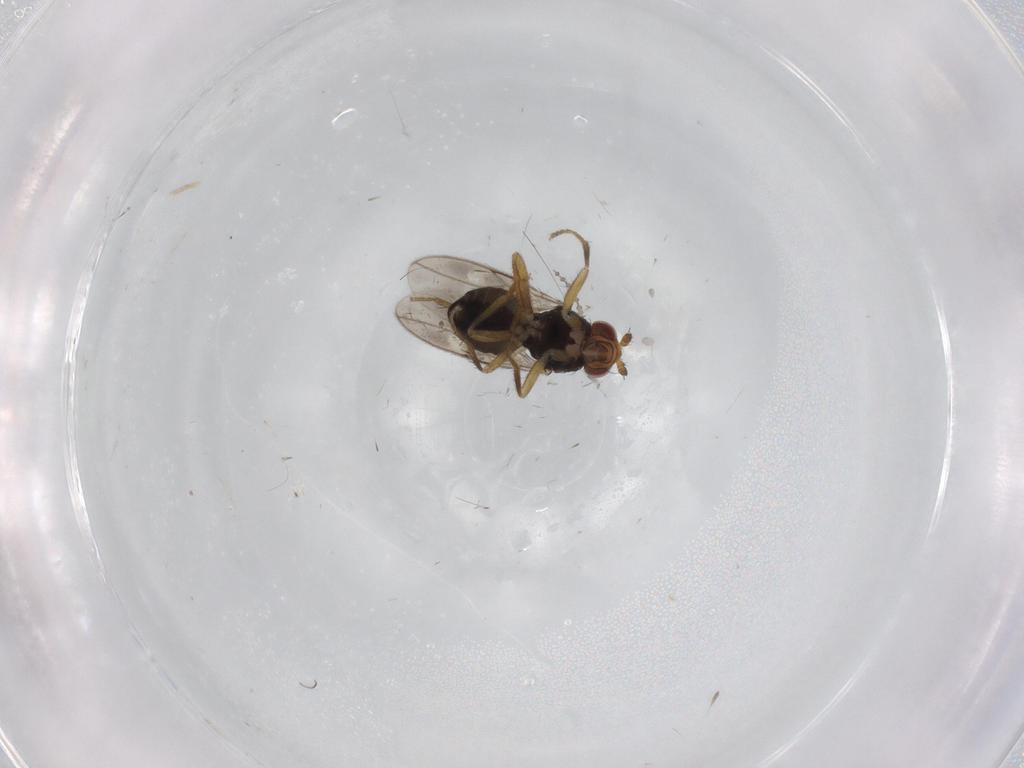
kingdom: Animalia
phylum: Arthropoda
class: Insecta
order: Diptera
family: Sphaeroceridae
